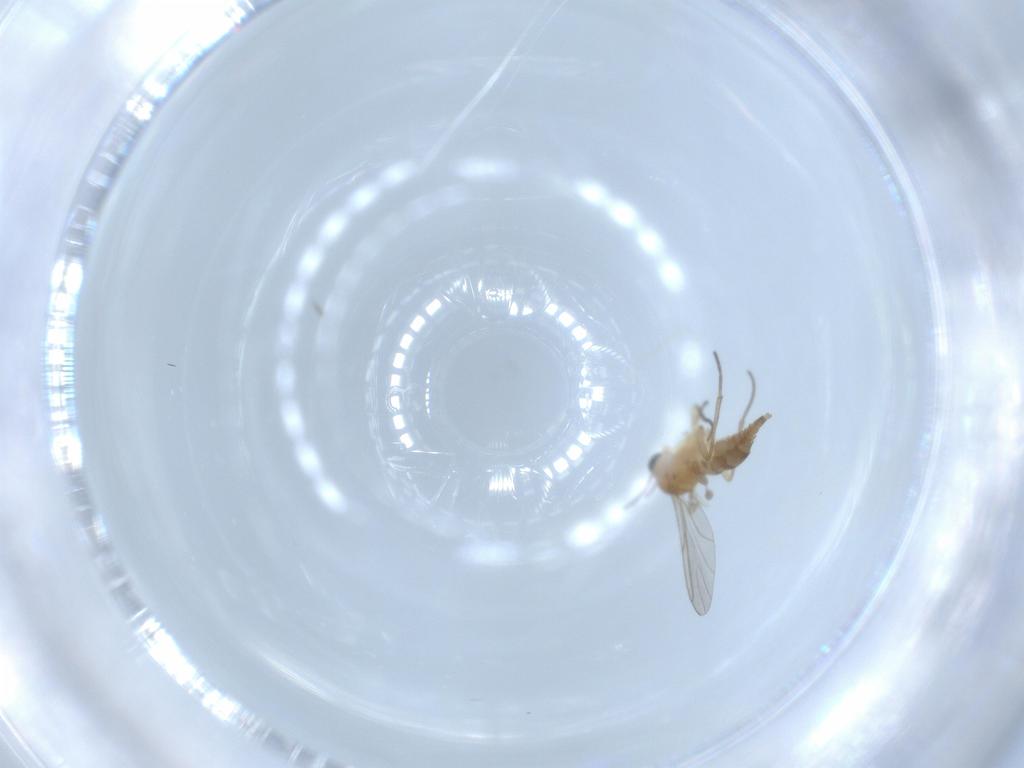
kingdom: Animalia
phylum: Arthropoda
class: Insecta
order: Diptera
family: Sciaridae
